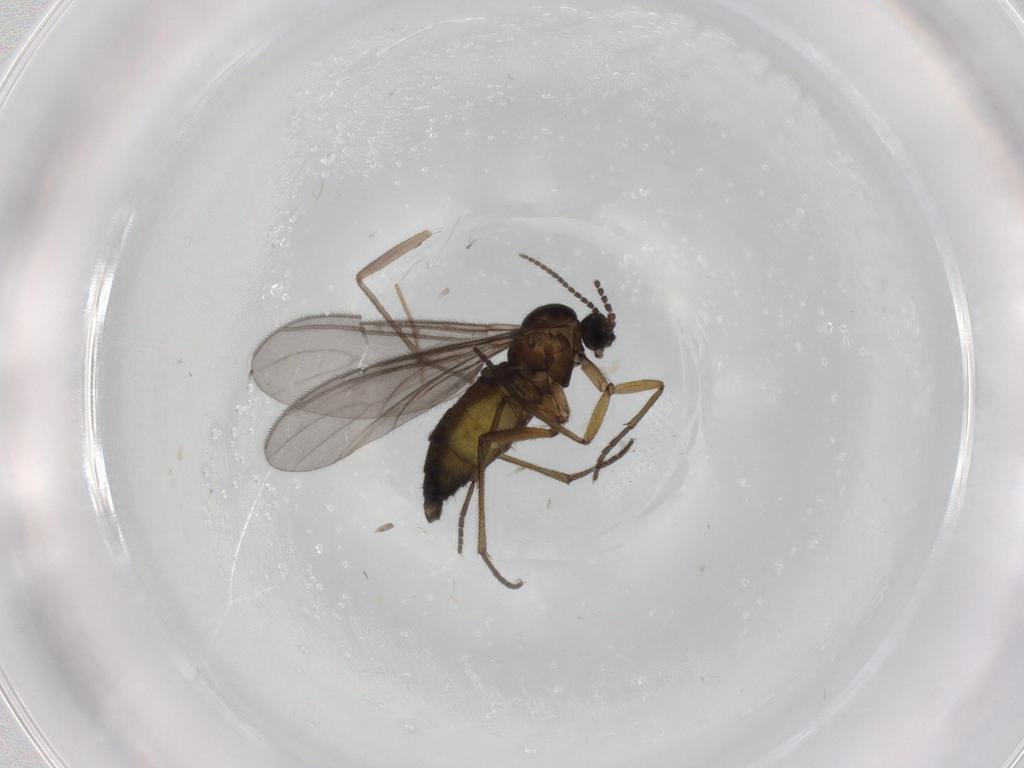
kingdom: Animalia
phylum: Arthropoda
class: Insecta
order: Diptera
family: Sciaridae
